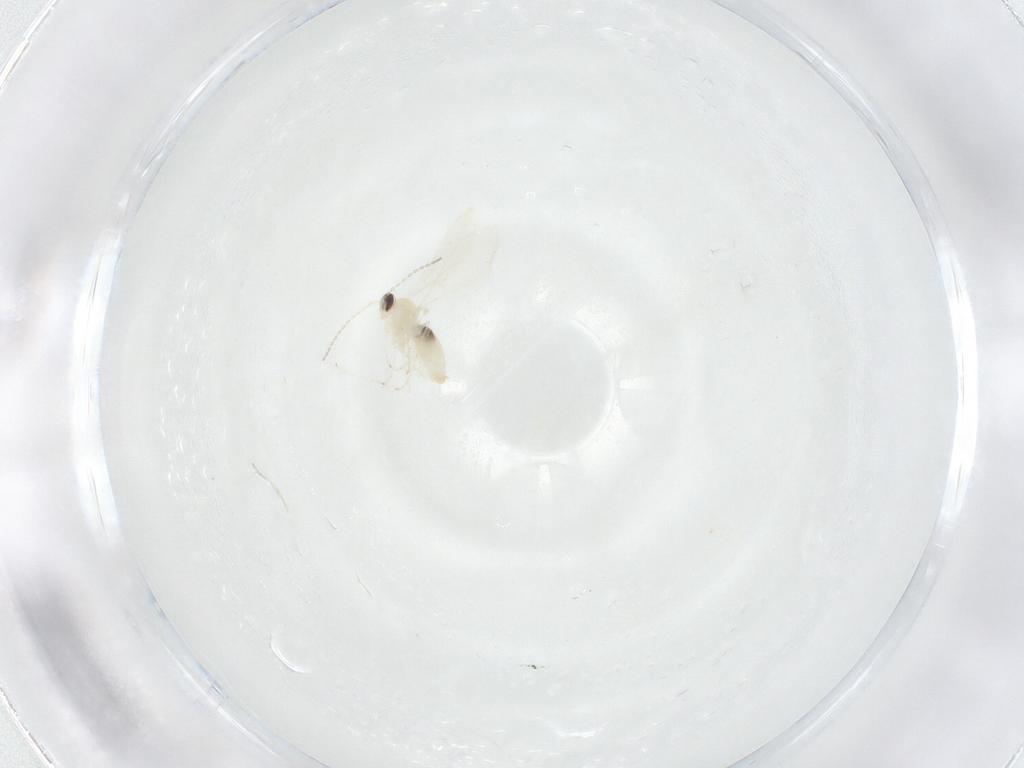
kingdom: Animalia
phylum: Arthropoda
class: Insecta
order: Diptera
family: Cecidomyiidae
